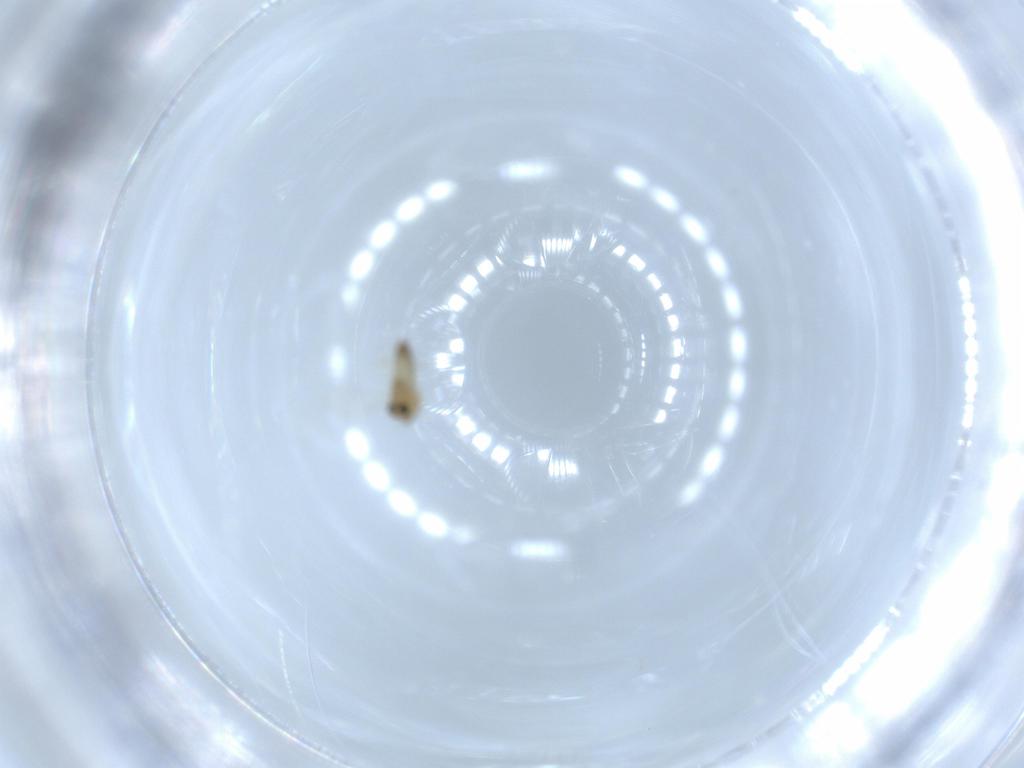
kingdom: Animalia
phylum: Arthropoda
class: Insecta
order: Diptera
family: Chironomidae
